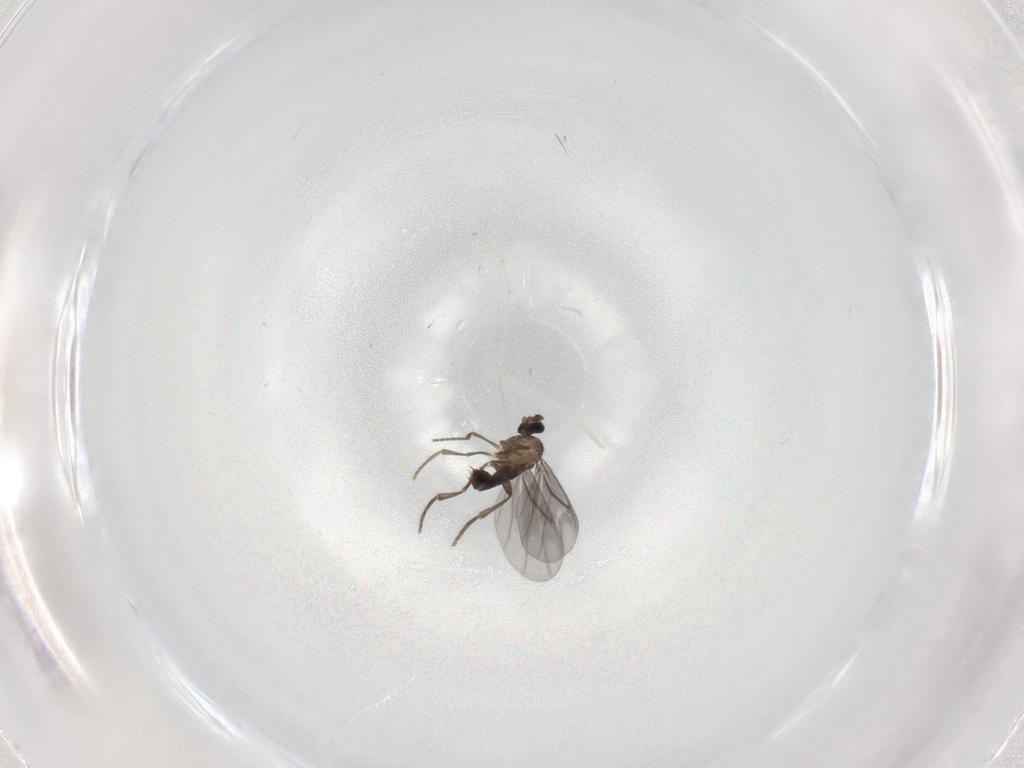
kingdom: Animalia
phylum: Arthropoda
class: Insecta
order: Diptera
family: Phoridae
